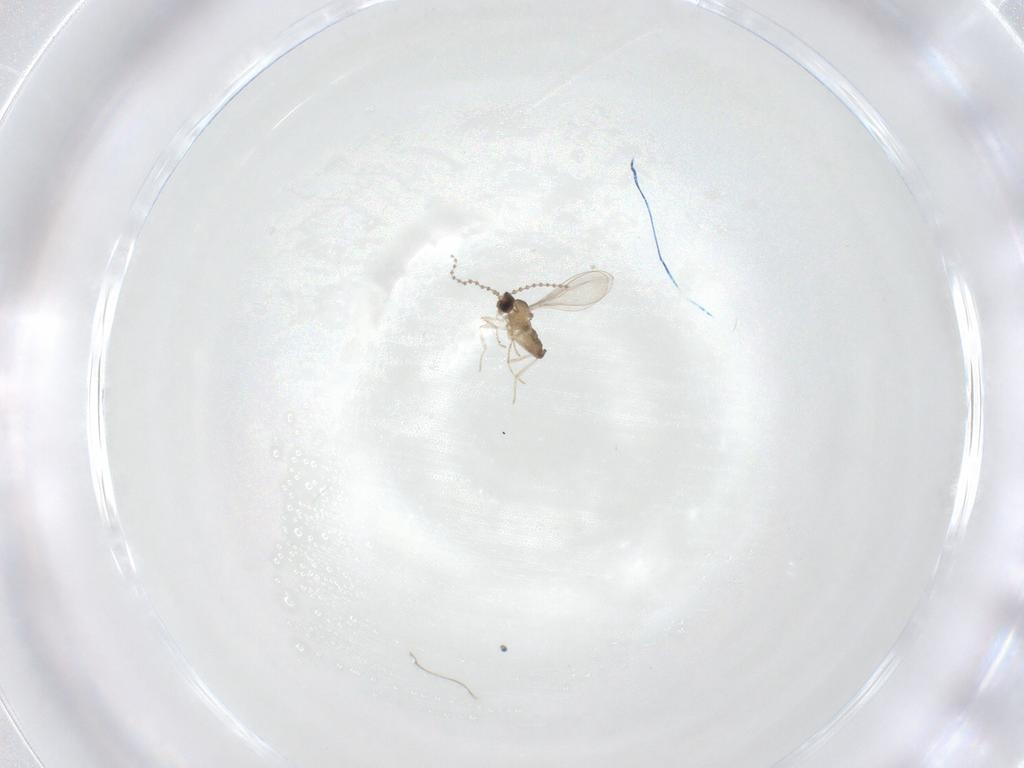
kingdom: Animalia
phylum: Arthropoda
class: Insecta
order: Diptera
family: Cecidomyiidae
